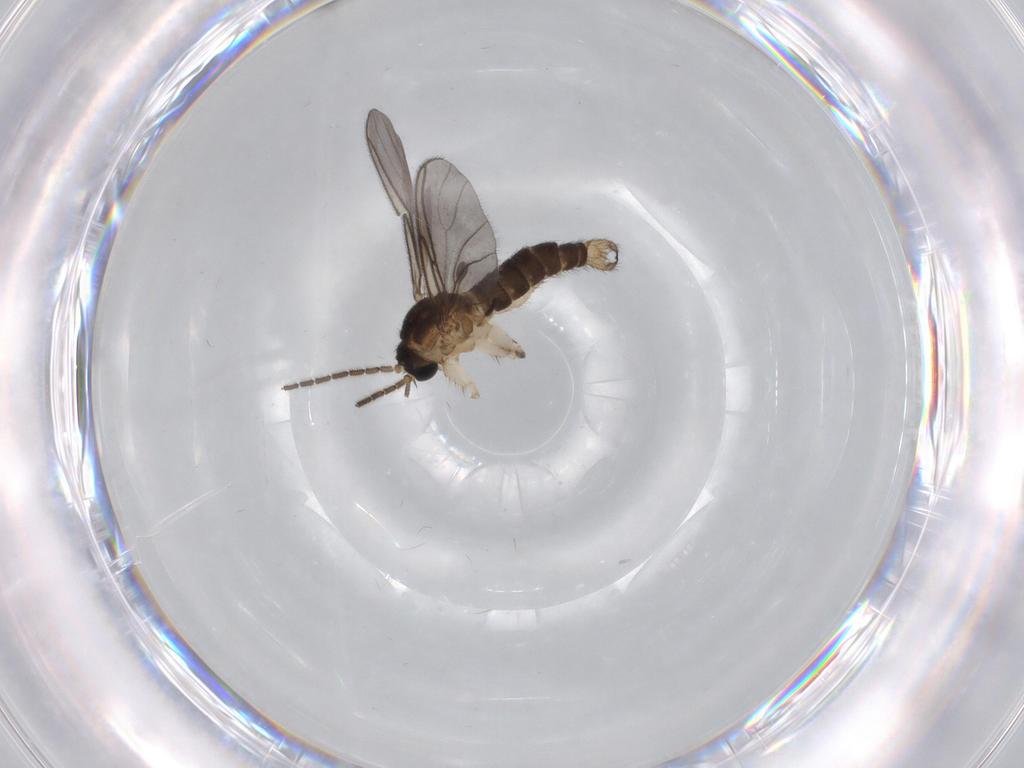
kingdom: Animalia
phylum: Arthropoda
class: Insecta
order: Diptera
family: Sciaridae
